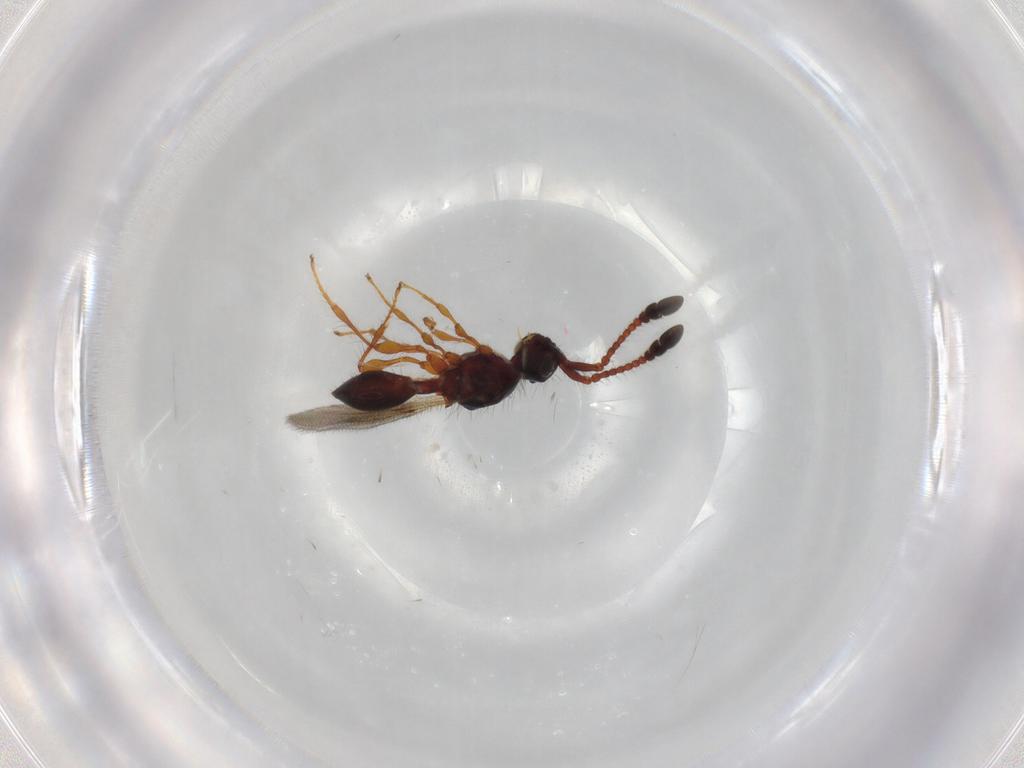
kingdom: Animalia
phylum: Arthropoda
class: Insecta
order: Hymenoptera
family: Diapriidae
